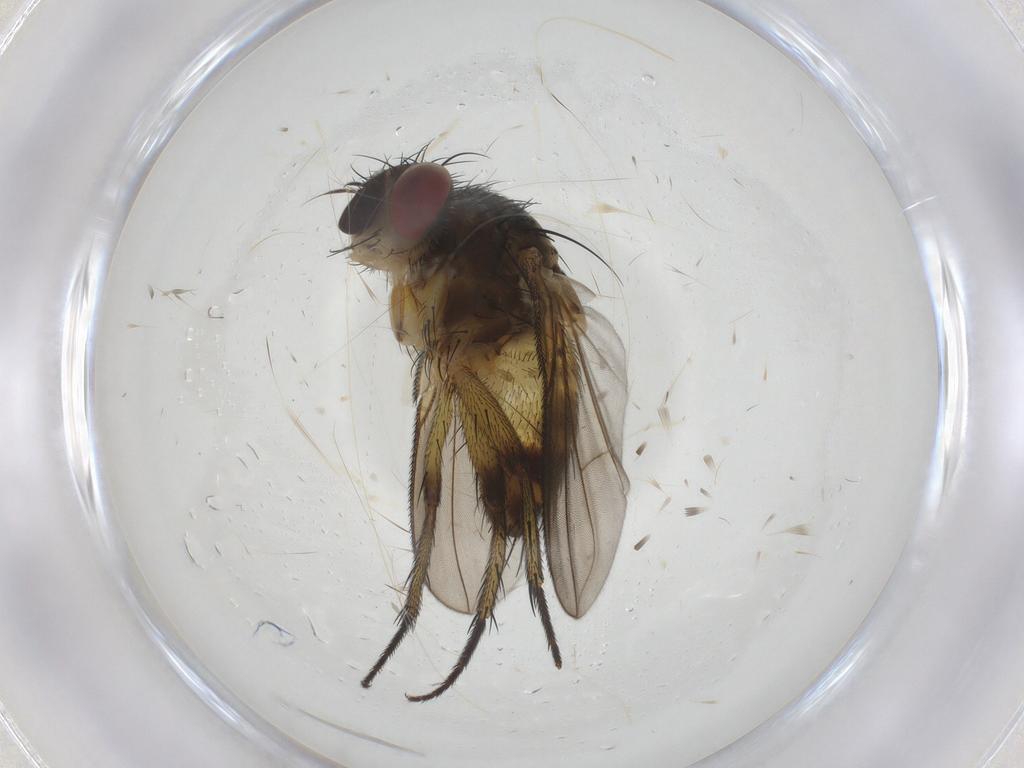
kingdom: Animalia
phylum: Arthropoda
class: Insecta
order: Diptera
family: Tachinidae
